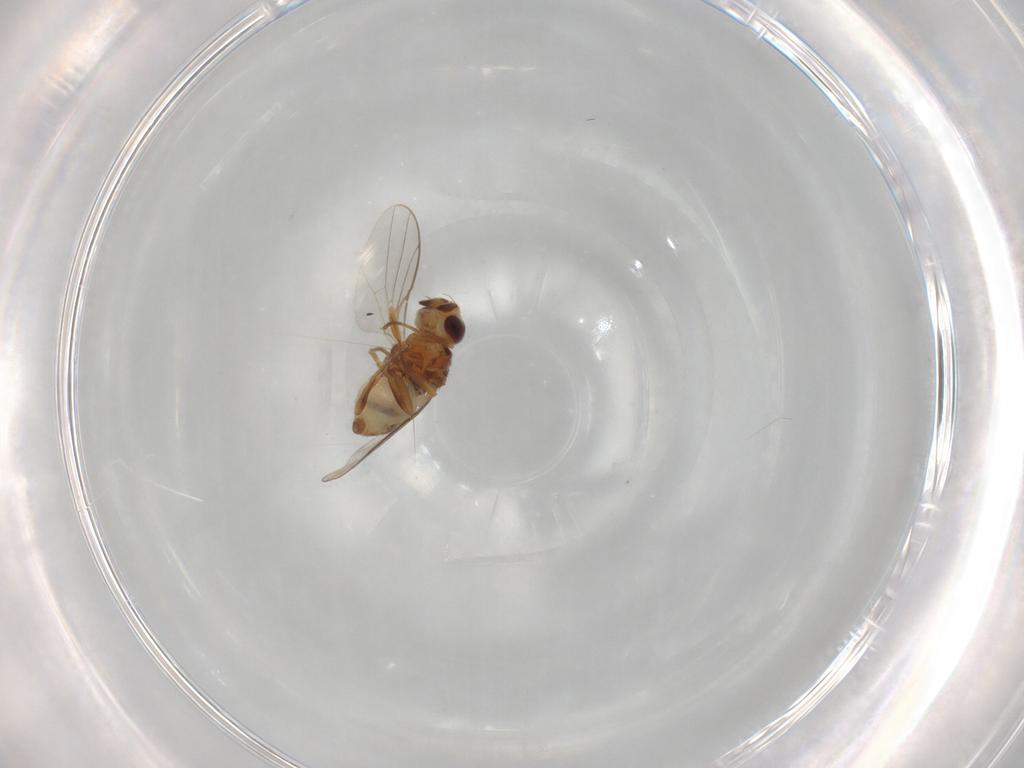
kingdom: Animalia
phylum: Arthropoda
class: Insecta
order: Diptera
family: Chloropidae
